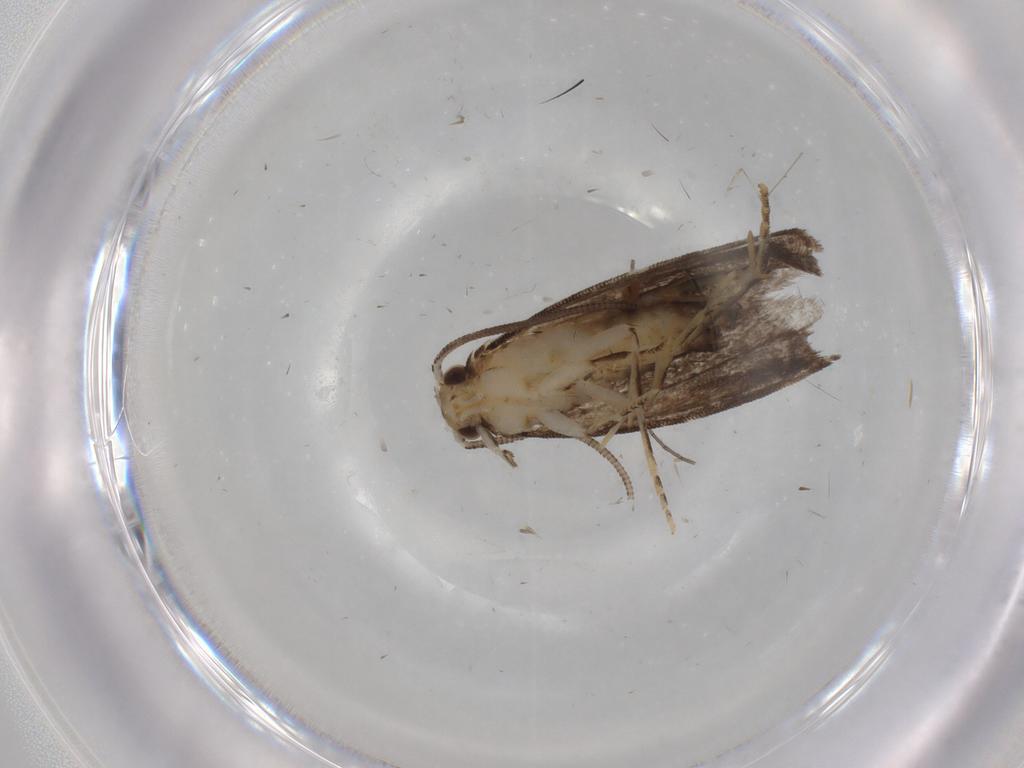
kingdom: Animalia
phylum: Arthropoda
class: Insecta
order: Lepidoptera
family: Dryadaulidae
